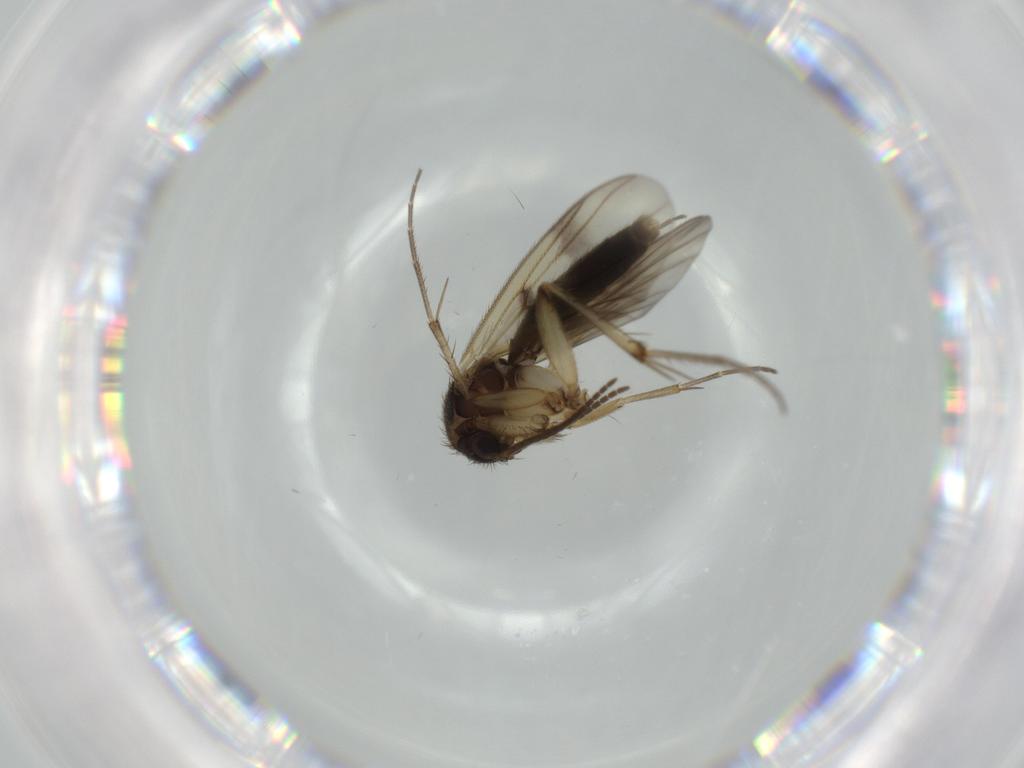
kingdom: Animalia
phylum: Arthropoda
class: Insecta
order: Diptera
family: Mycetophilidae
